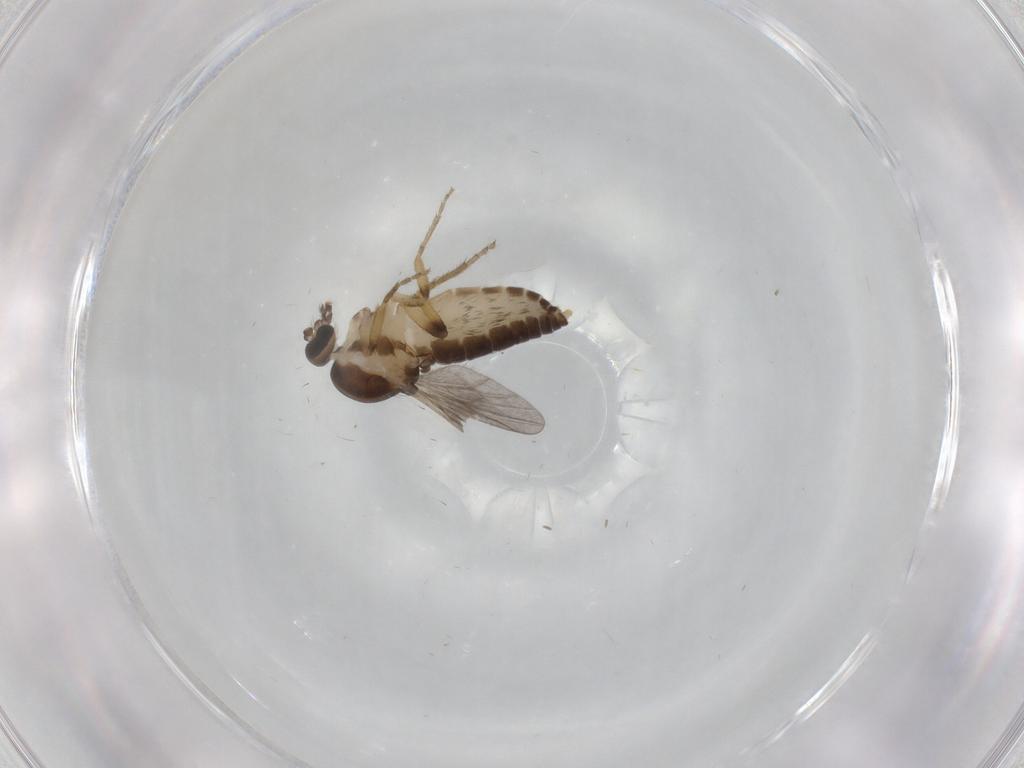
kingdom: Animalia
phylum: Arthropoda
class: Insecta
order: Diptera
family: Ceratopogonidae
